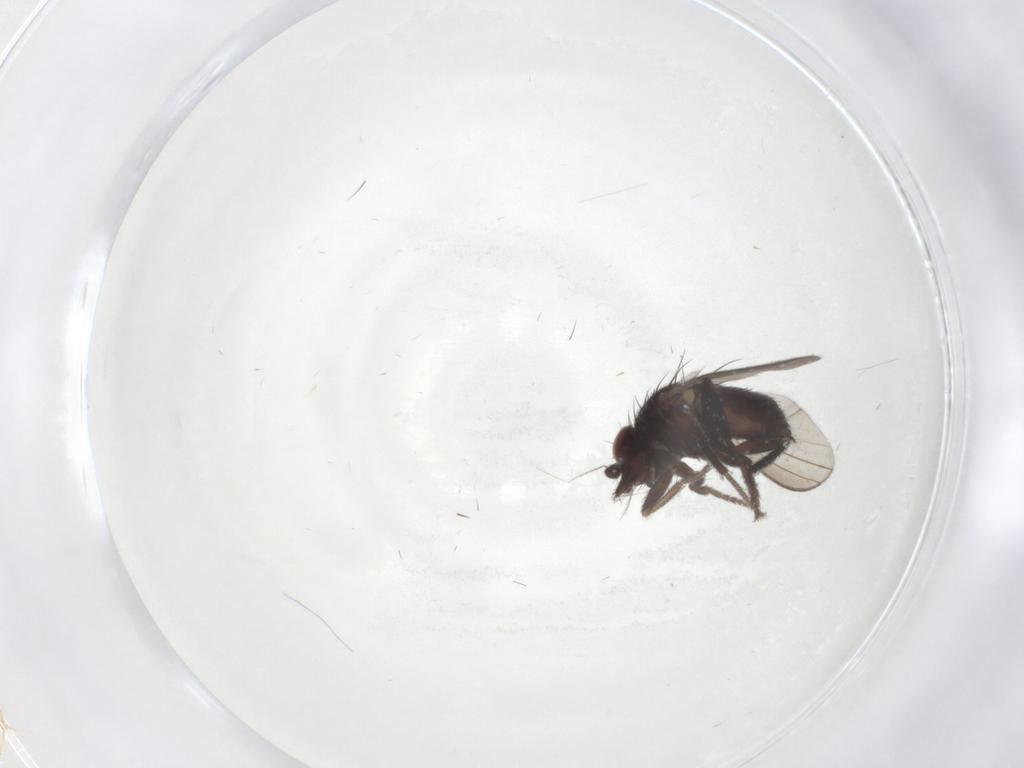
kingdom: Animalia
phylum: Arthropoda
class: Insecta
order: Diptera
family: Milichiidae
